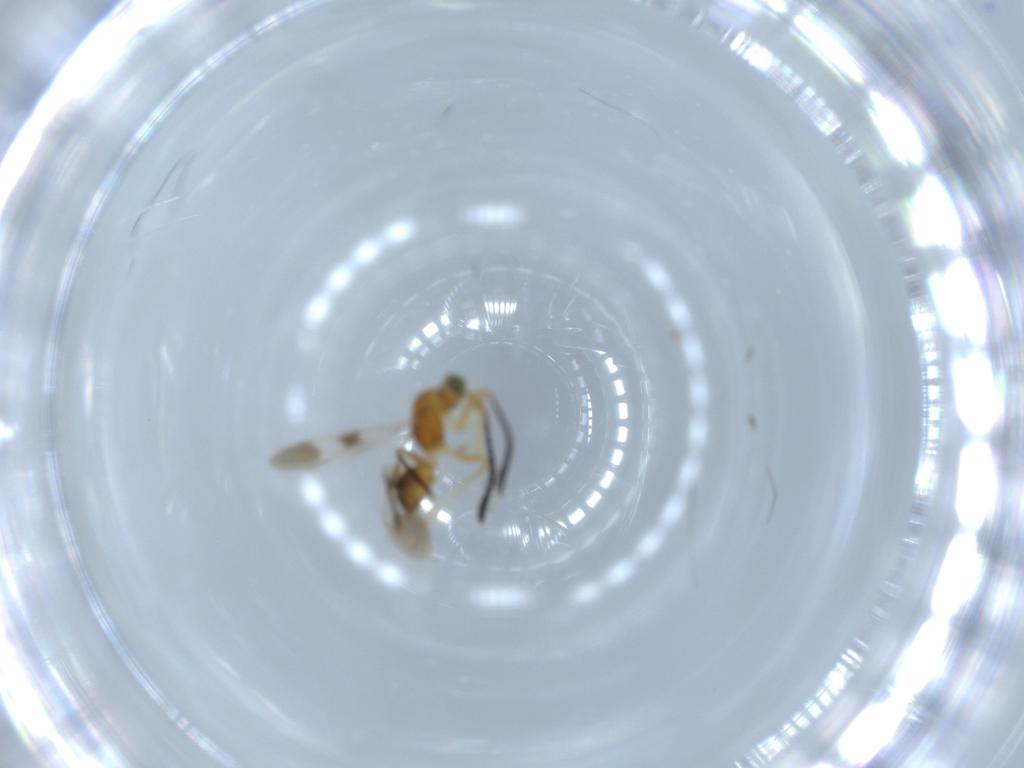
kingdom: Animalia
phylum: Arthropoda
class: Insecta
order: Hymenoptera
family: Mymaridae
